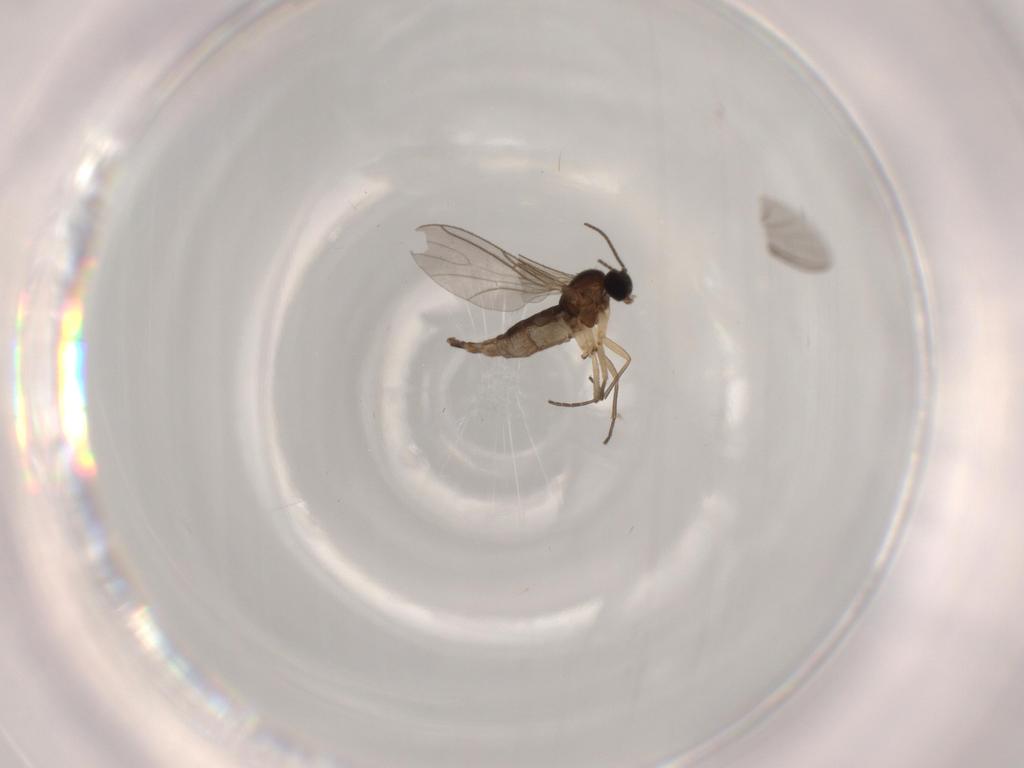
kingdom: Animalia
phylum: Arthropoda
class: Insecta
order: Diptera
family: Sciaridae
